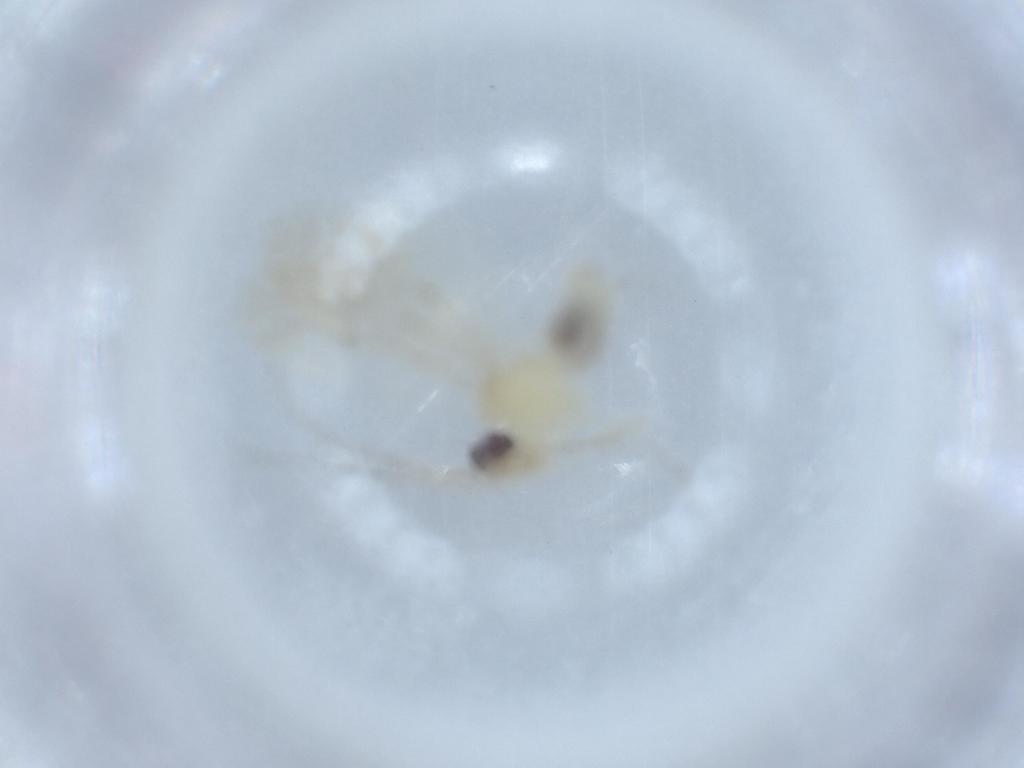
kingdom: Animalia
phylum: Arthropoda
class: Insecta
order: Psocodea
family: Caeciliusidae
